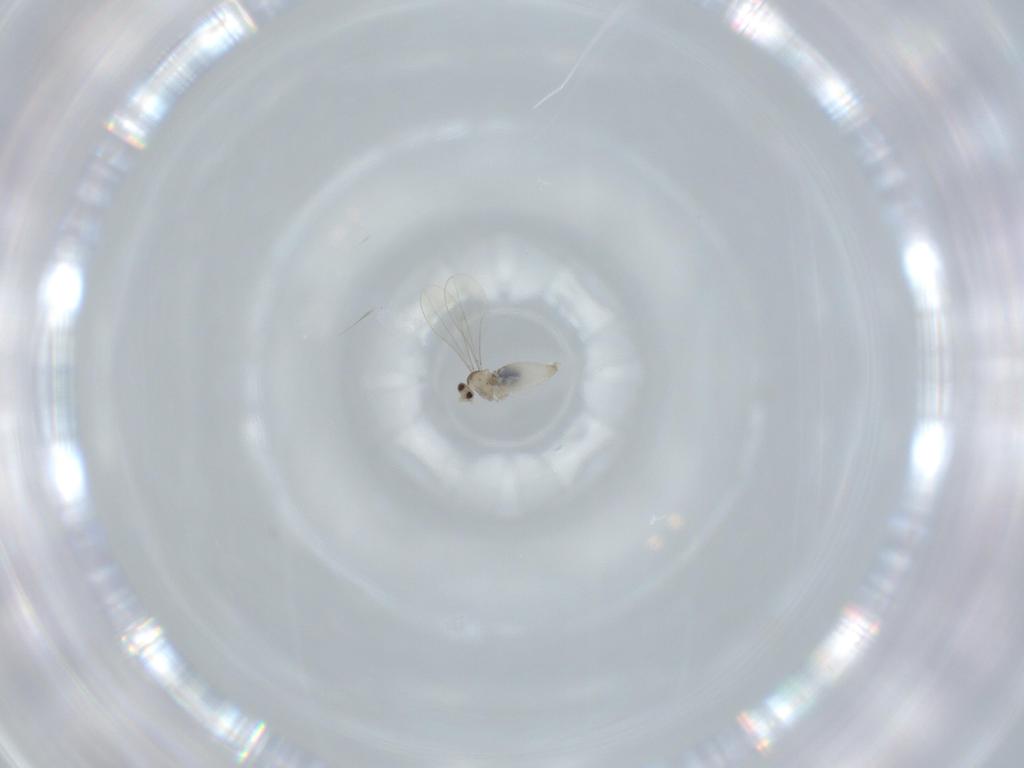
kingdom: Animalia
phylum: Arthropoda
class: Insecta
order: Diptera
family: Cecidomyiidae
